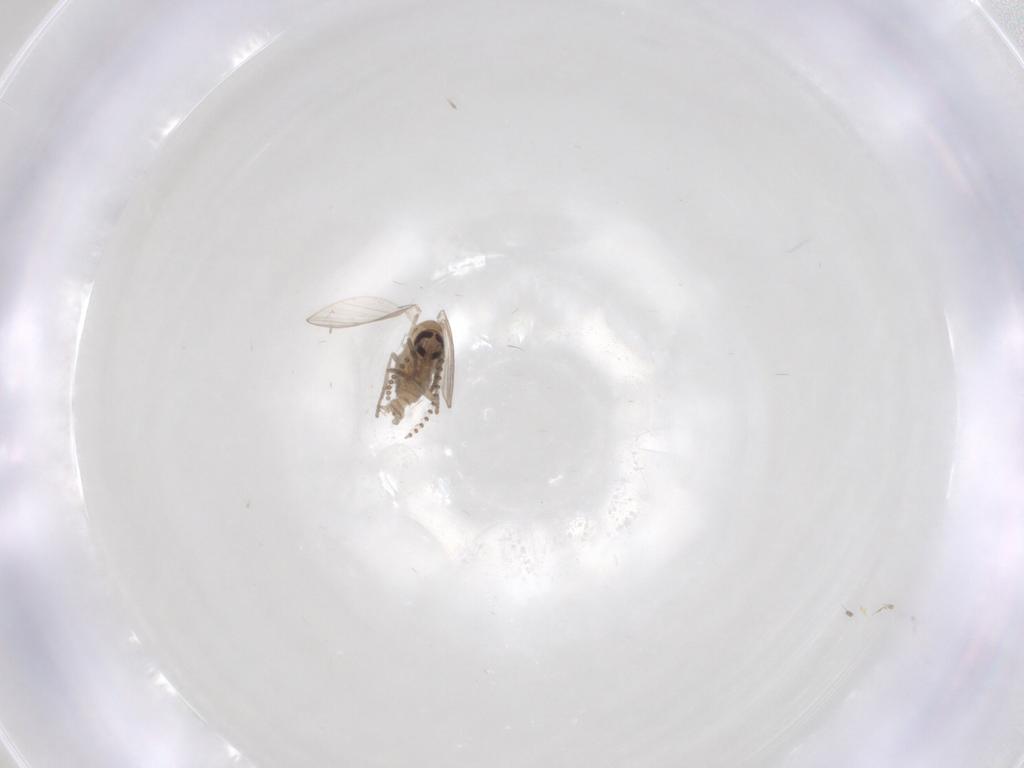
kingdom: Animalia
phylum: Arthropoda
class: Insecta
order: Diptera
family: Psychodidae
